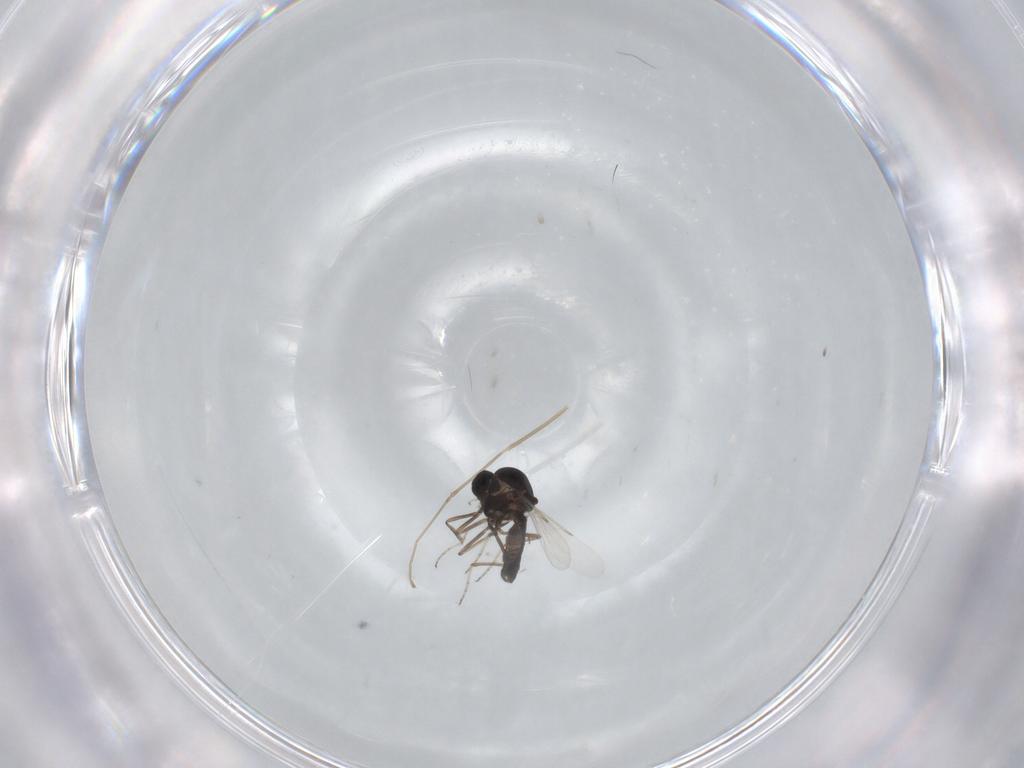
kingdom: Animalia
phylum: Arthropoda
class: Insecta
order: Diptera
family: Ceratopogonidae
